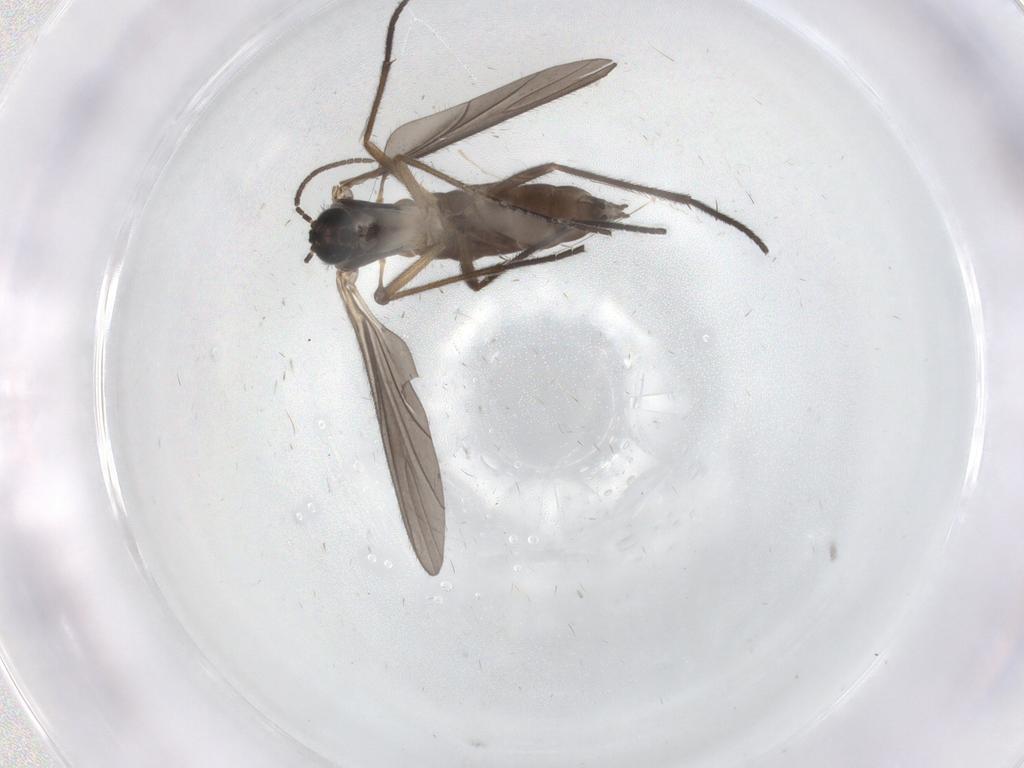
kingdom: Animalia
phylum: Arthropoda
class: Insecta
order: Diptera
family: Sciaridae
